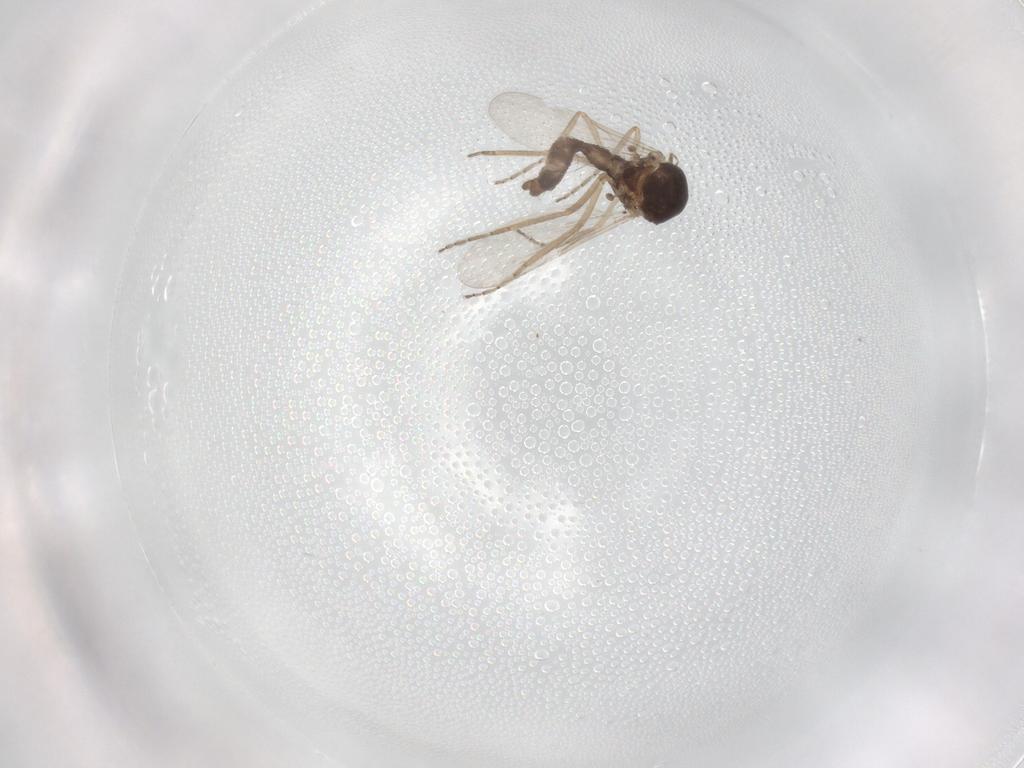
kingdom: Animalia
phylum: Arthropoda
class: Insecta
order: Diptera
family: Ceratopogonidae
